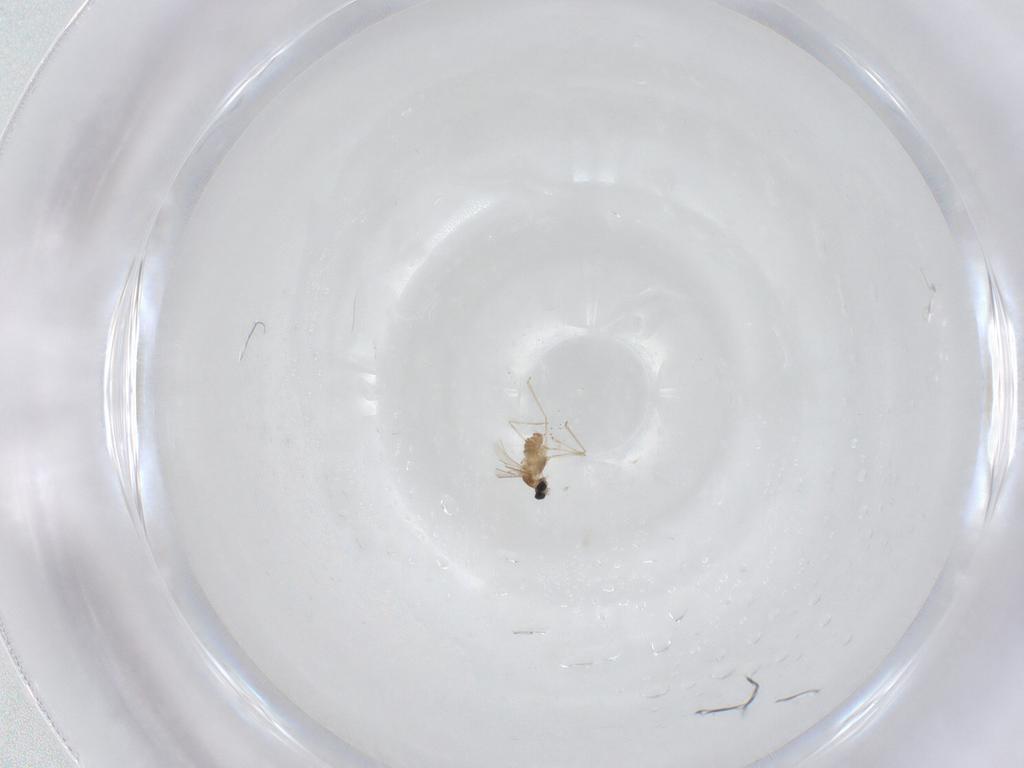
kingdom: Animalia
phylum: Arthropoda
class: Insecta
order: Diptera
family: Cecidomyiidae
